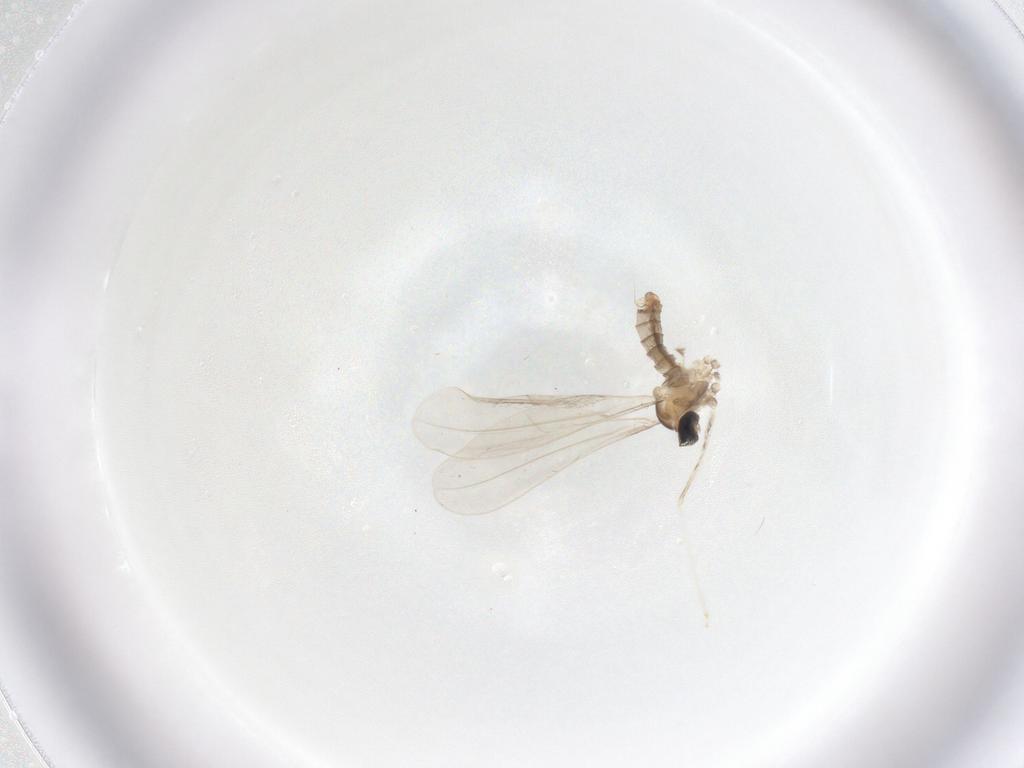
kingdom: Animalia
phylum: Arthropoda
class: Insecta
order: Diptera
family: Cecidomyiidae
